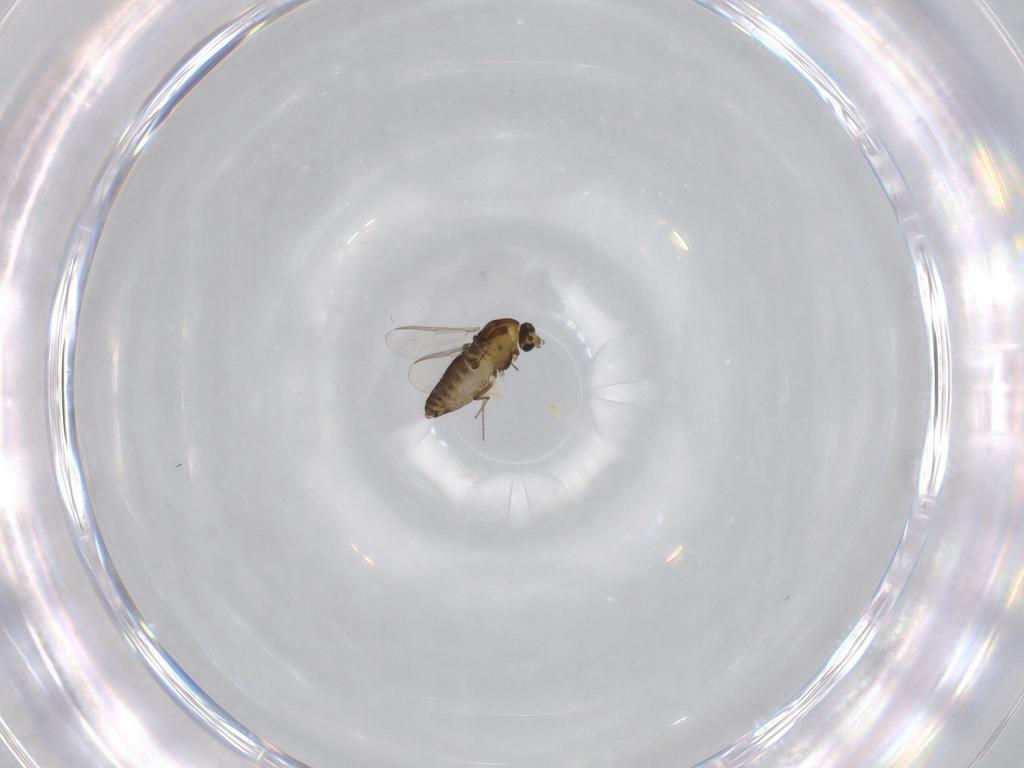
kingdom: Animalia
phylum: Arthropoda
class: Insecta
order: Diptera
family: Chironomidae
